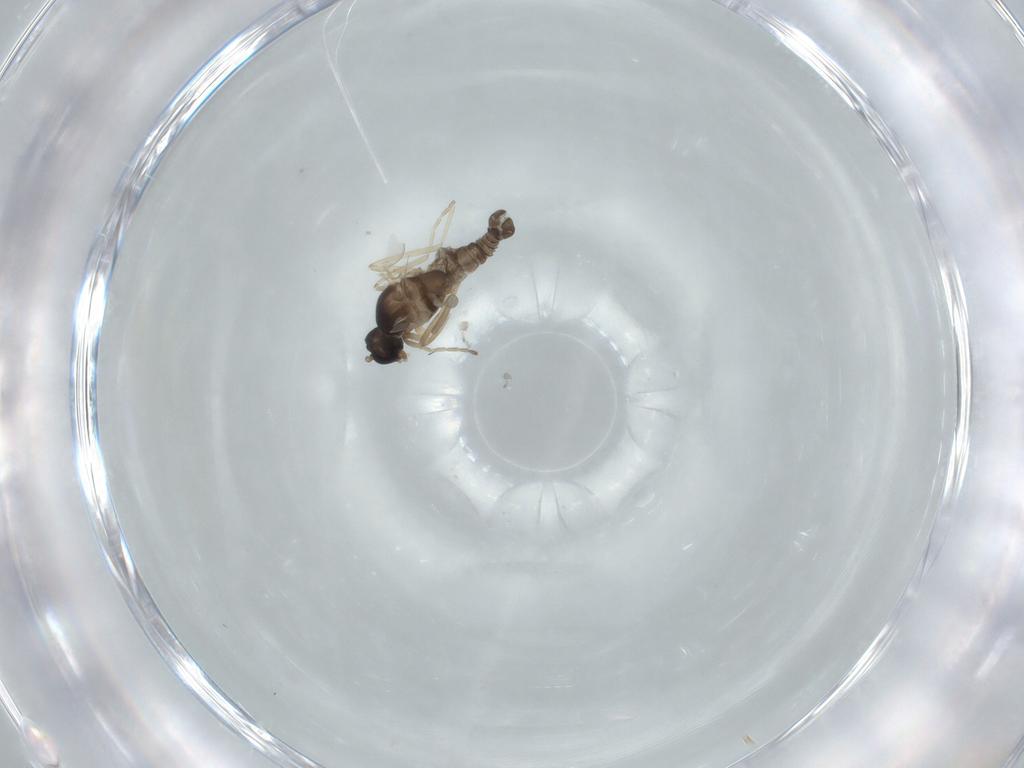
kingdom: Animalia
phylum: Arthropoda
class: Insecta
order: Diptera
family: Cecidomyiidae
